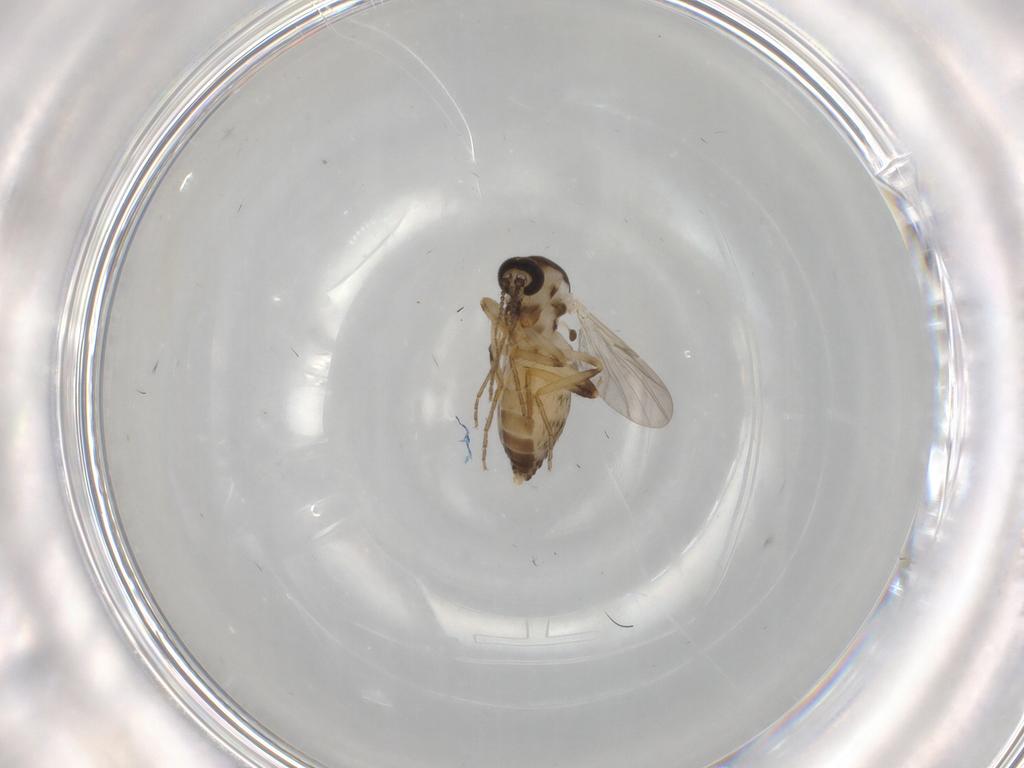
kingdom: Animalia
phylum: Arthropoda
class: Insecta
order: Diptera
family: Ceratopogonidae
